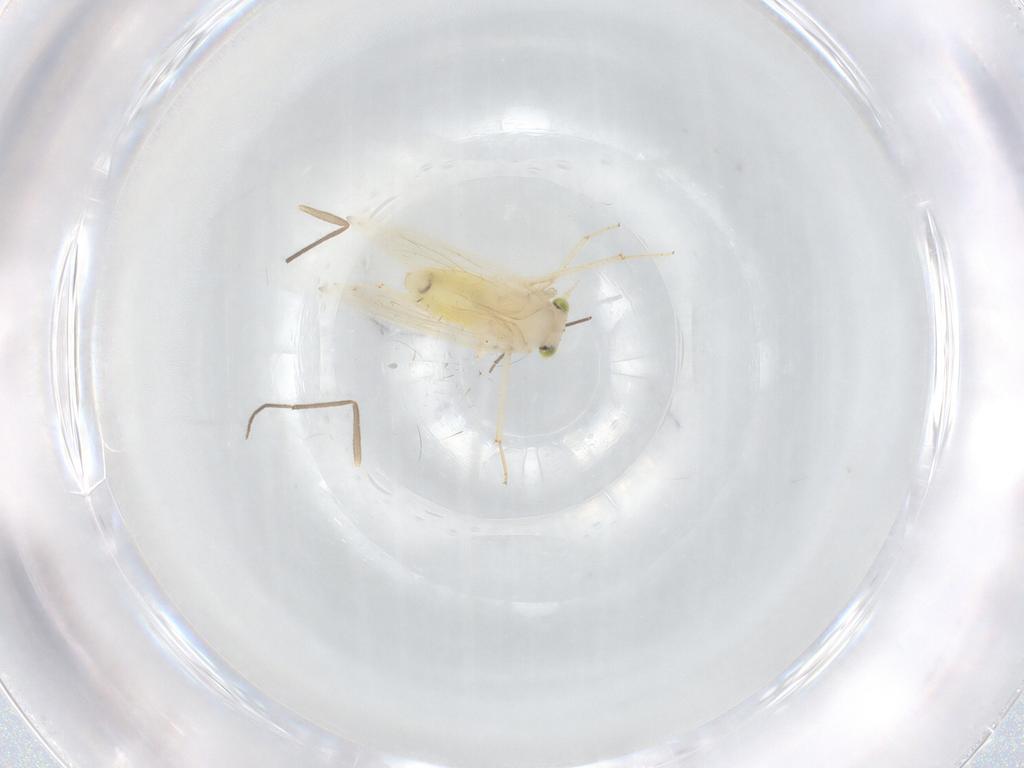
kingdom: Animalia
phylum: Arthropoda
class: Insecta
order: Psocodea
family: Lepidopsocidae
